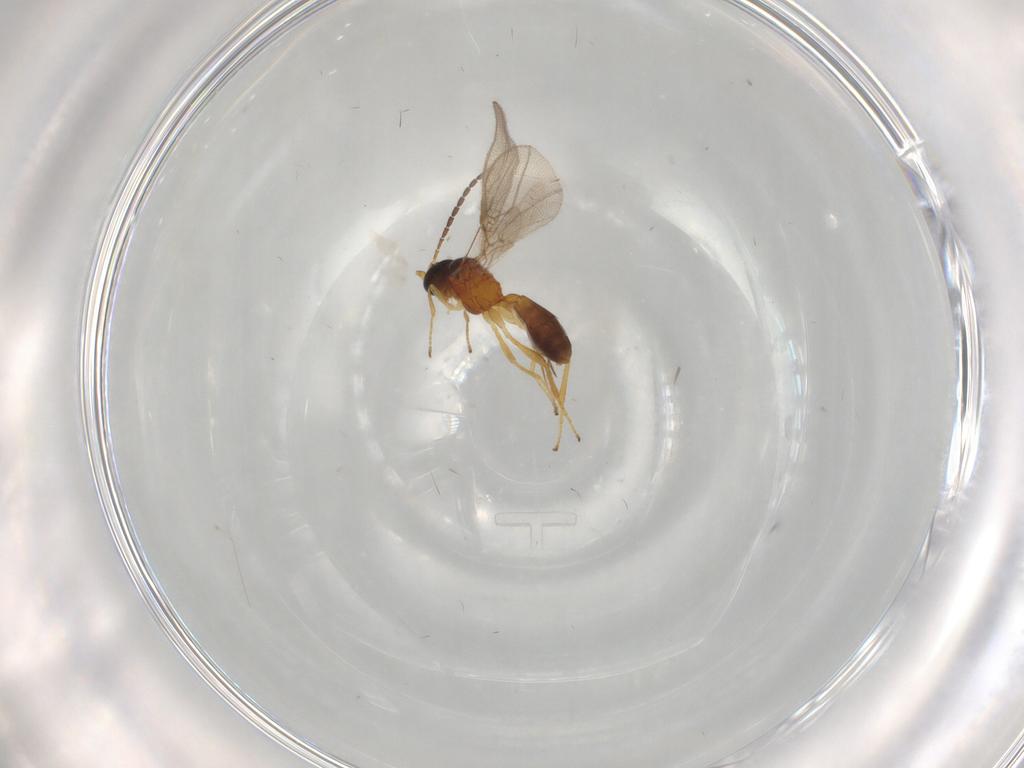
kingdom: Animalia
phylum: Arthropoda
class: Insecta
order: Hymenoptera
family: Braconidae
